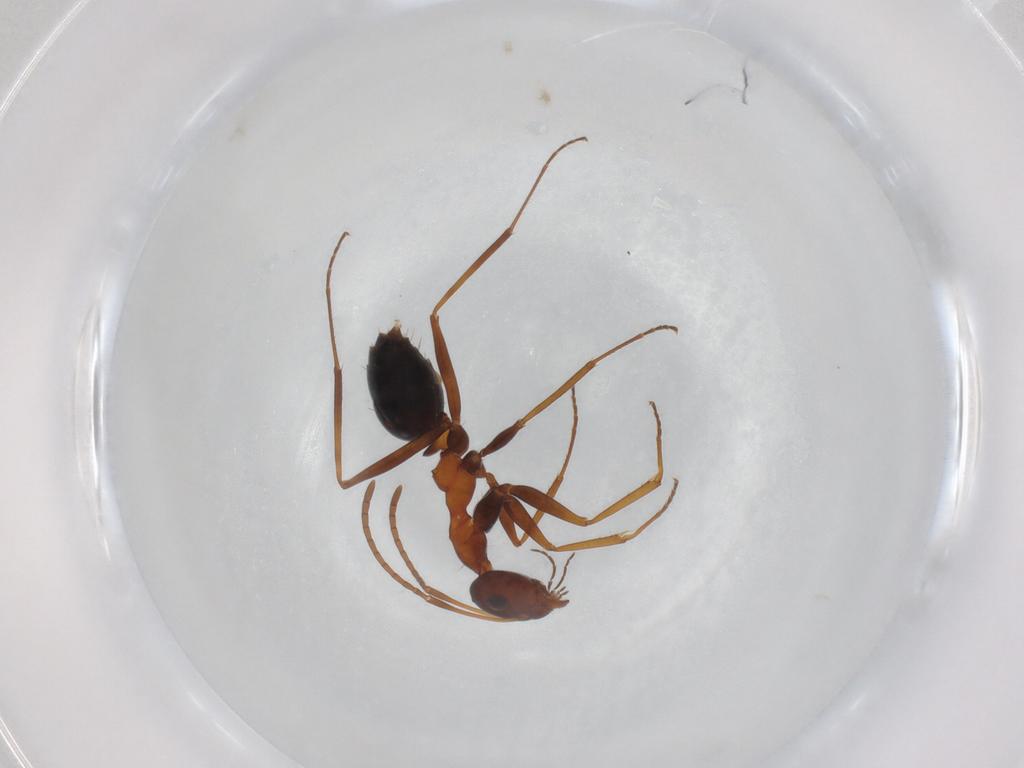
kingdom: Animalia
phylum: Arthropoda
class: Insecta
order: Hymenoptera
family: Formicidae
